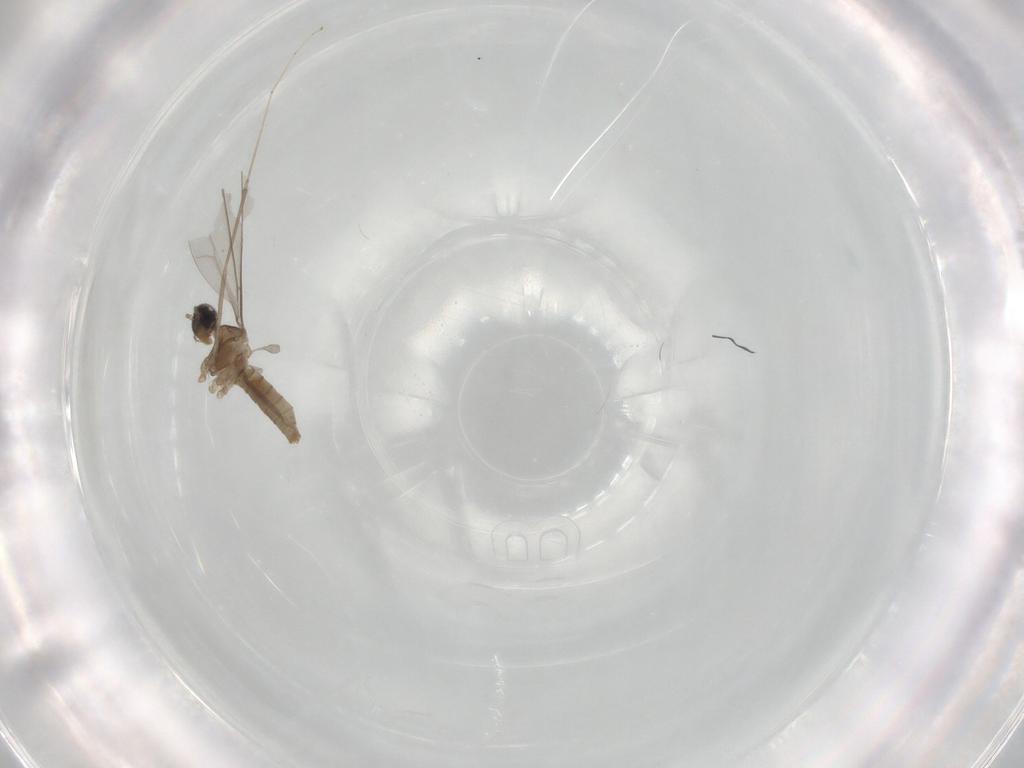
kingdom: Animalia
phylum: Arthropoda
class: Insecta
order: Diptera
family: Cecidomyiidae
